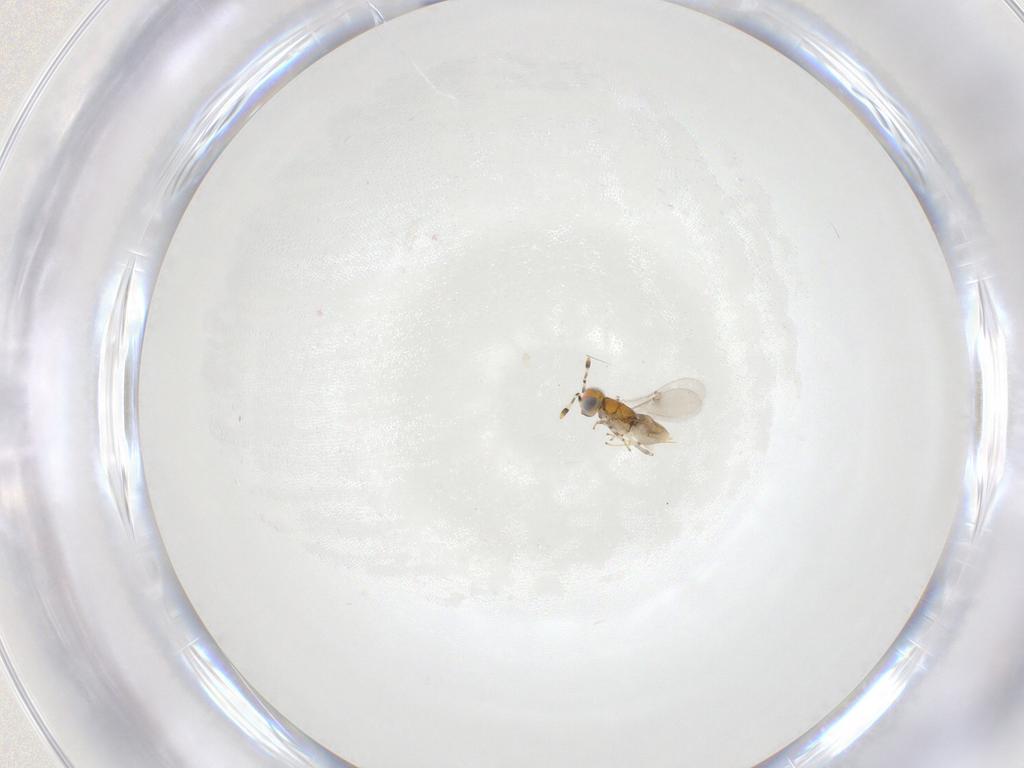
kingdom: Animalia
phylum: Arthropoda
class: Insecta
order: Hymenoptera
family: Encyrtidae
